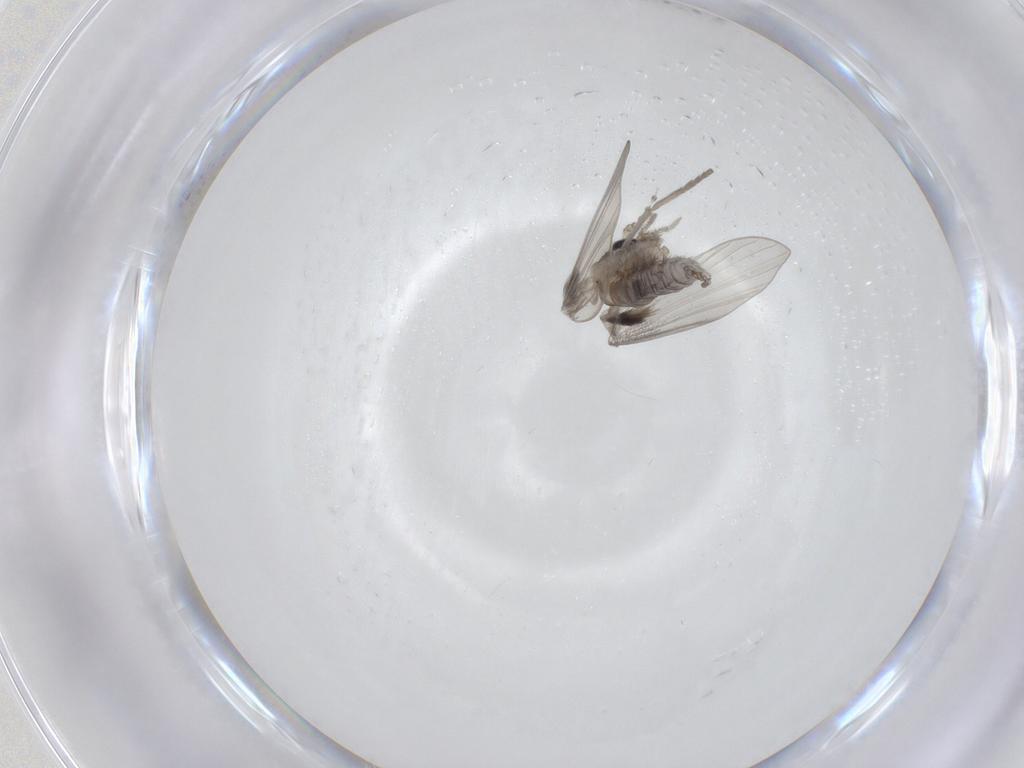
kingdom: Animalia
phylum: Arthropoda
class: Insecta
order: Diptera
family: Psychodidae
